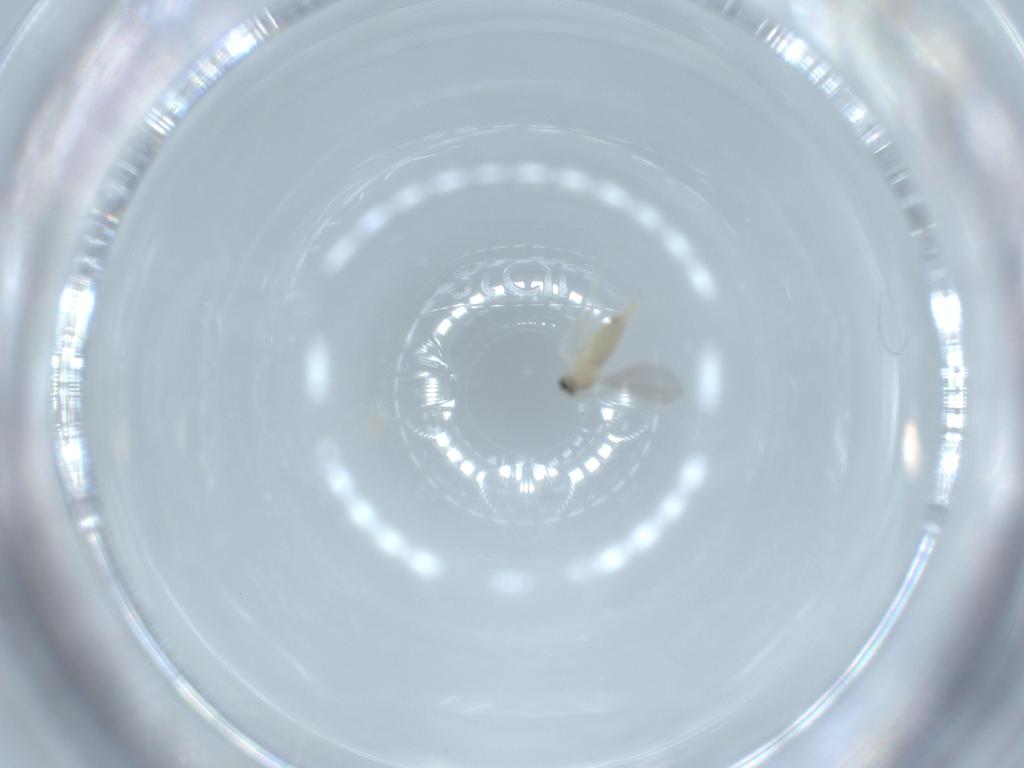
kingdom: Animalia
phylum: Arthropoda
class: Insecta
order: Diptera
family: Cecidomyiidae
